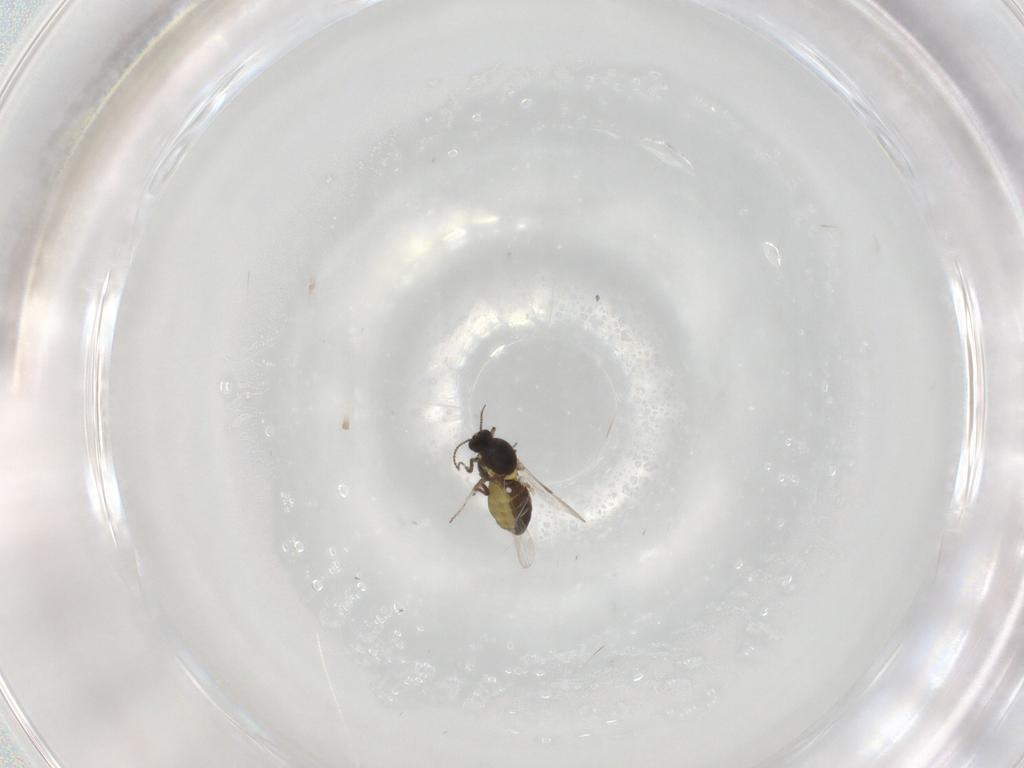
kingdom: Animalia
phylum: Arthropoda
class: Insecta
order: Diptera
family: Ceratopogonidae
